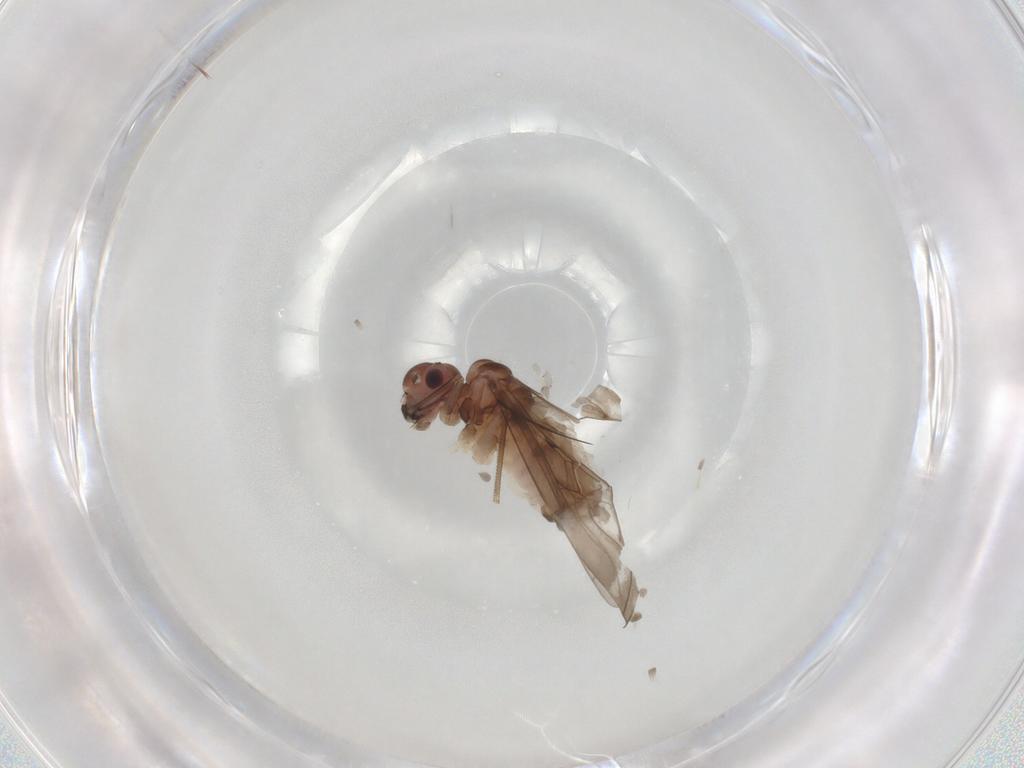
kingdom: Animalia
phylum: Arthropoda
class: Insecta
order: Psocodea
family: Peripsocidae
